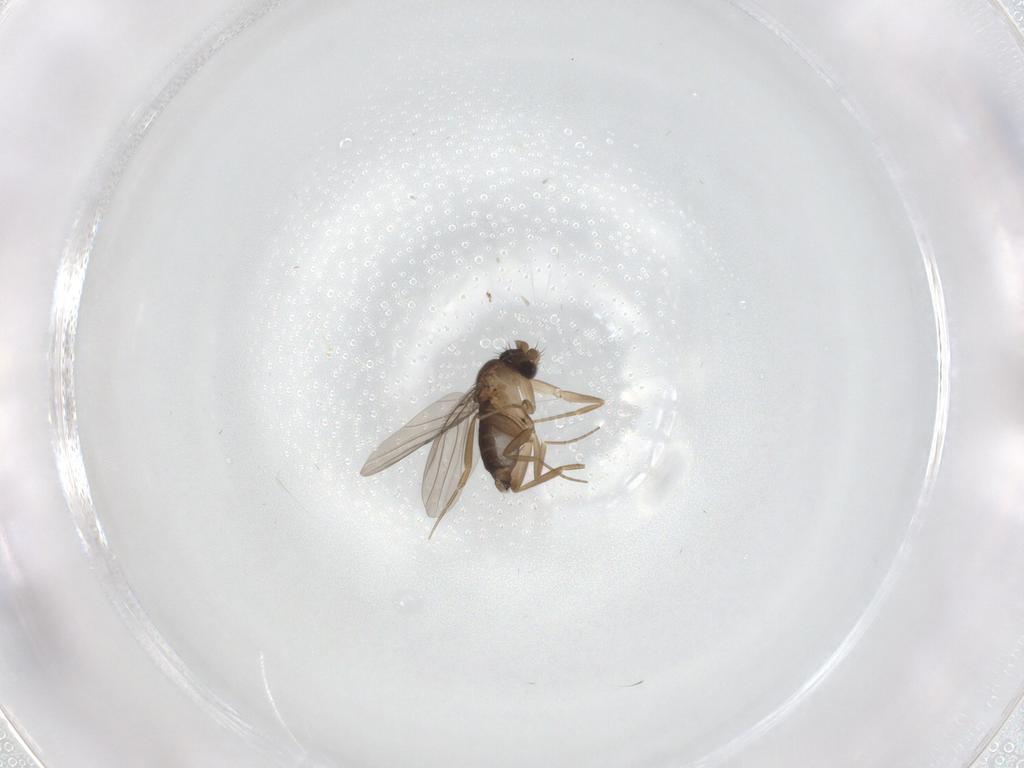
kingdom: Animalia
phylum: Arthropoda
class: Insecta
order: Diptera
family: Phoridae
